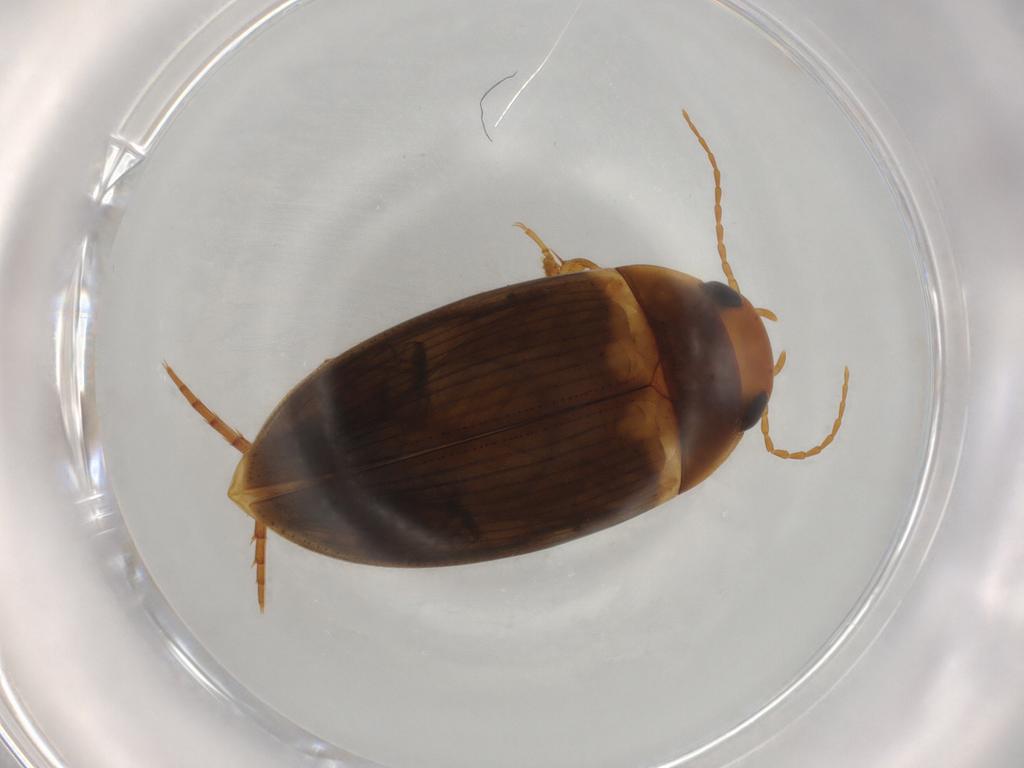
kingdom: Animalia
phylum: Arthropoda
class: Insecta
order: Coleoptera
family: Dytiscidae
